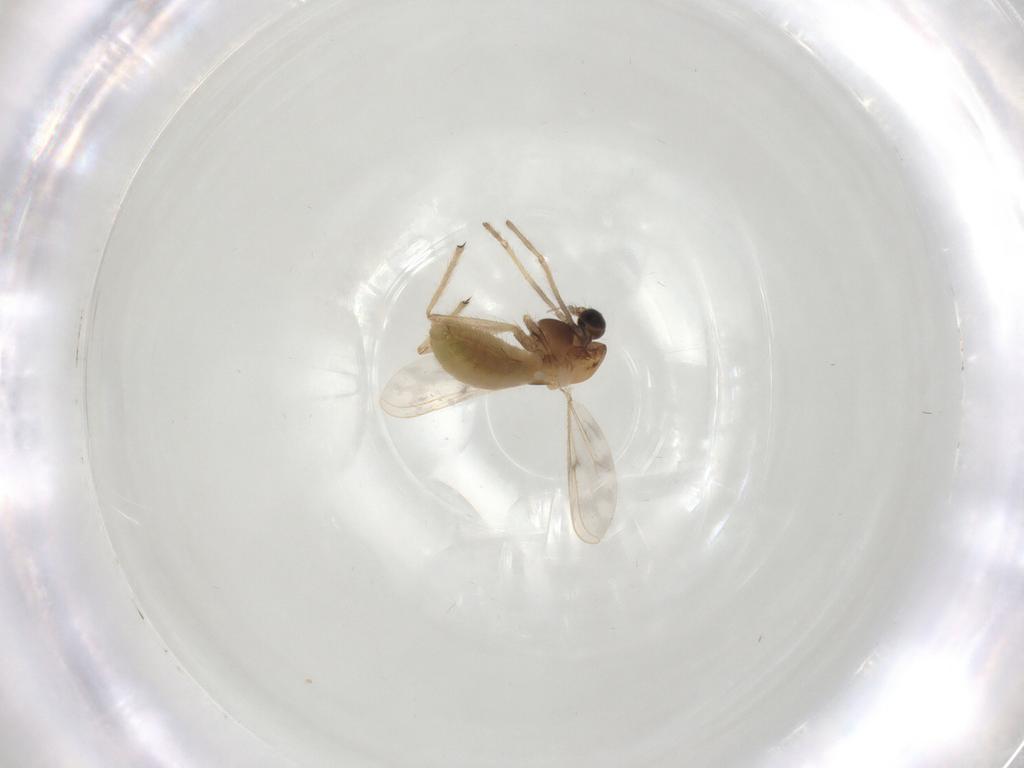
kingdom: Animalia
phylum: Arthropoda
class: Insecta
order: Diptera
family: Chironomidae
